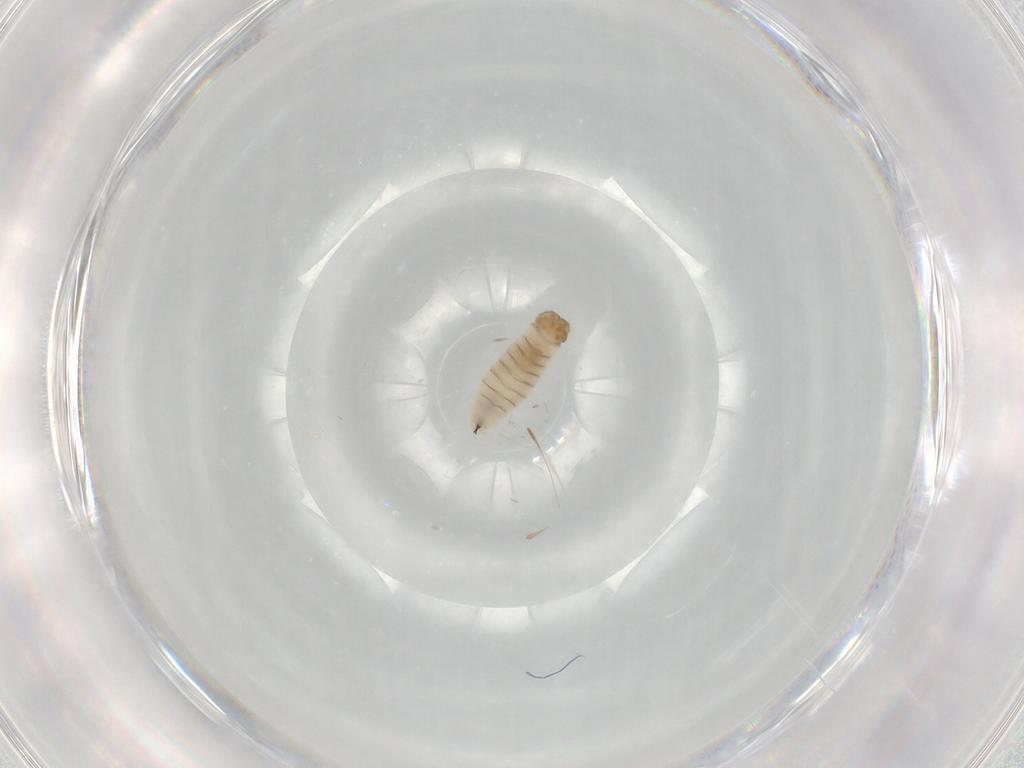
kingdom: Animalia
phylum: Arthropoda
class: Insecta
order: Diptera
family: Sarcophagidae
